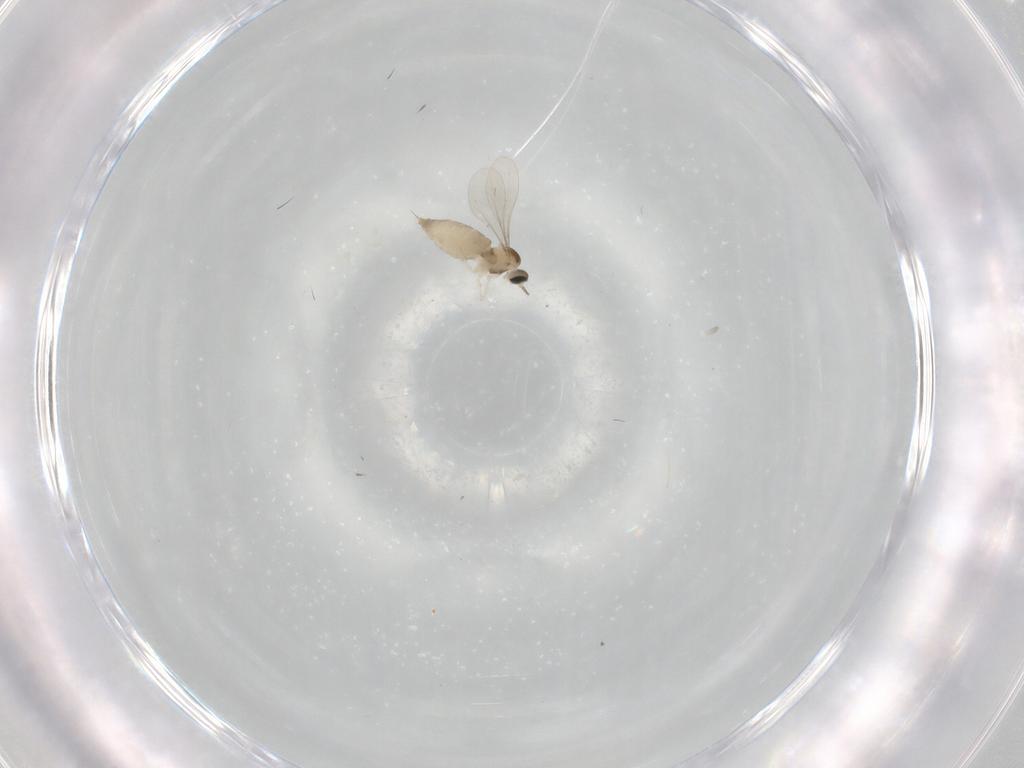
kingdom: Animalia
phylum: Arthropoda
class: Insecta
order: Diptera
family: Cecidomyiidae
